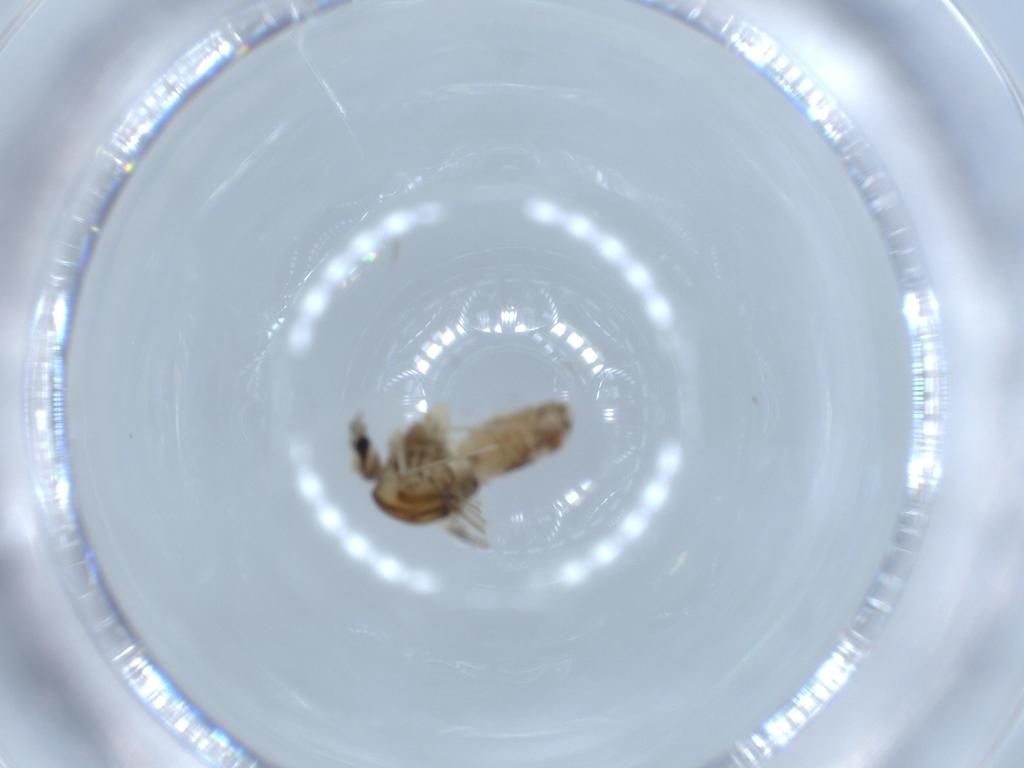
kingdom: Animalia
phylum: Arthropoda
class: Insecta
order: Diptera
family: Chironomidae
